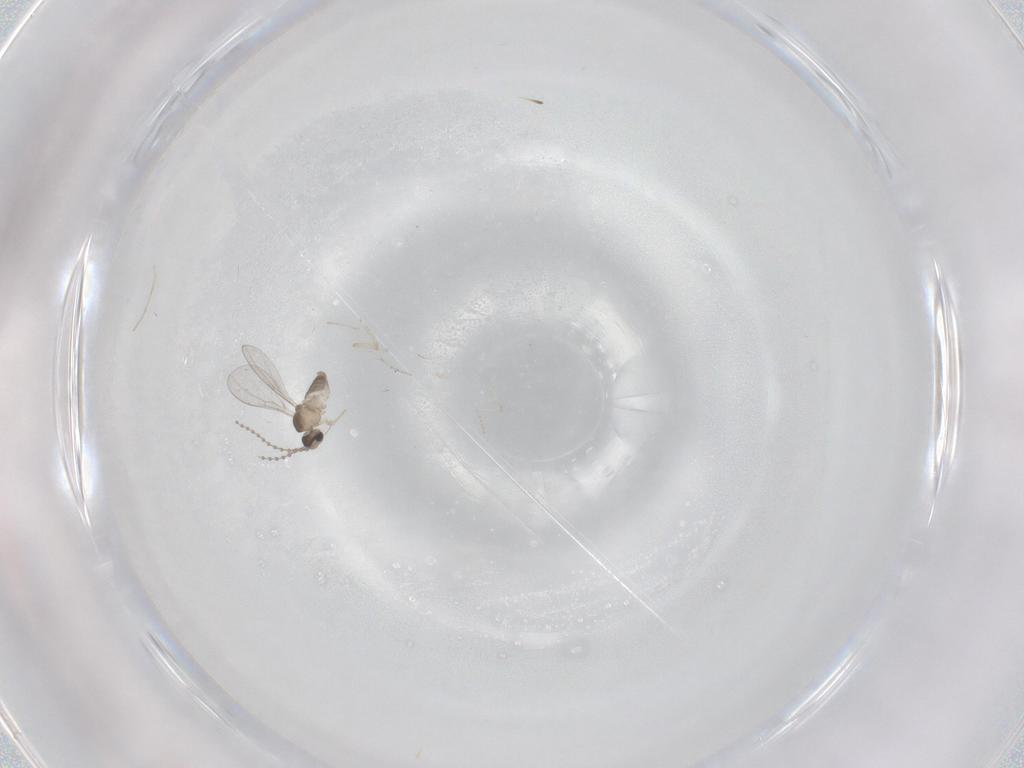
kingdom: Animalia
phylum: Arthropoda
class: Insecta
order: Diptera
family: Cecidomyiidae
